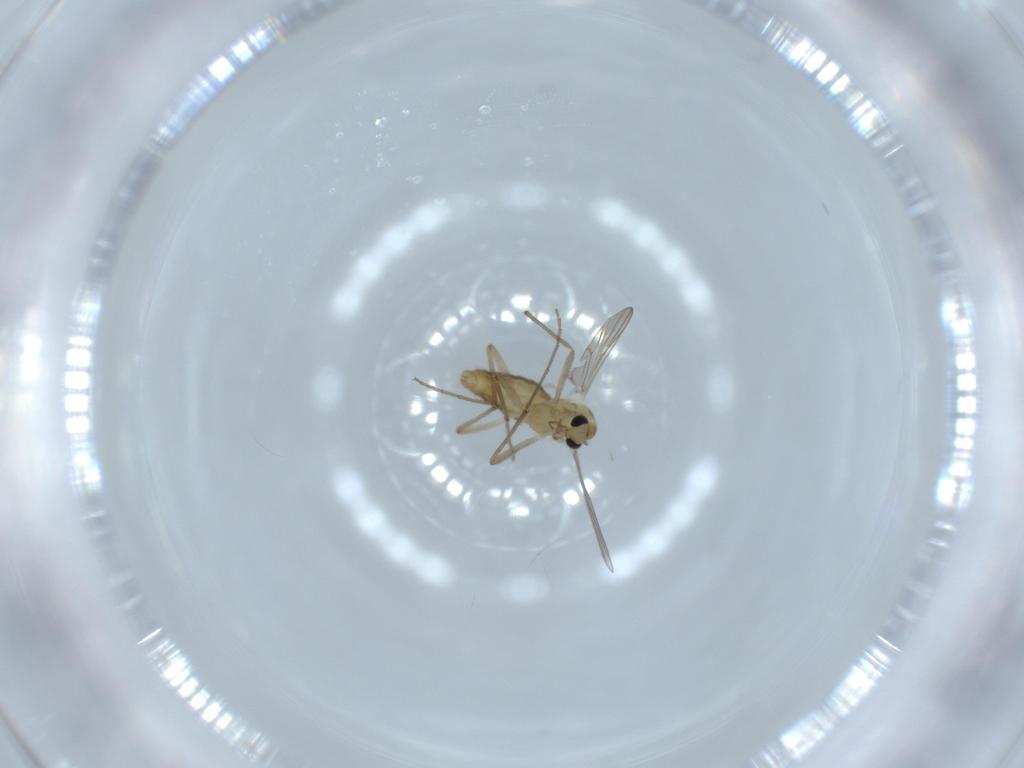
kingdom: Animalia
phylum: Arthropoda
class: Insecta
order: Diptera
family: Chironomidae
